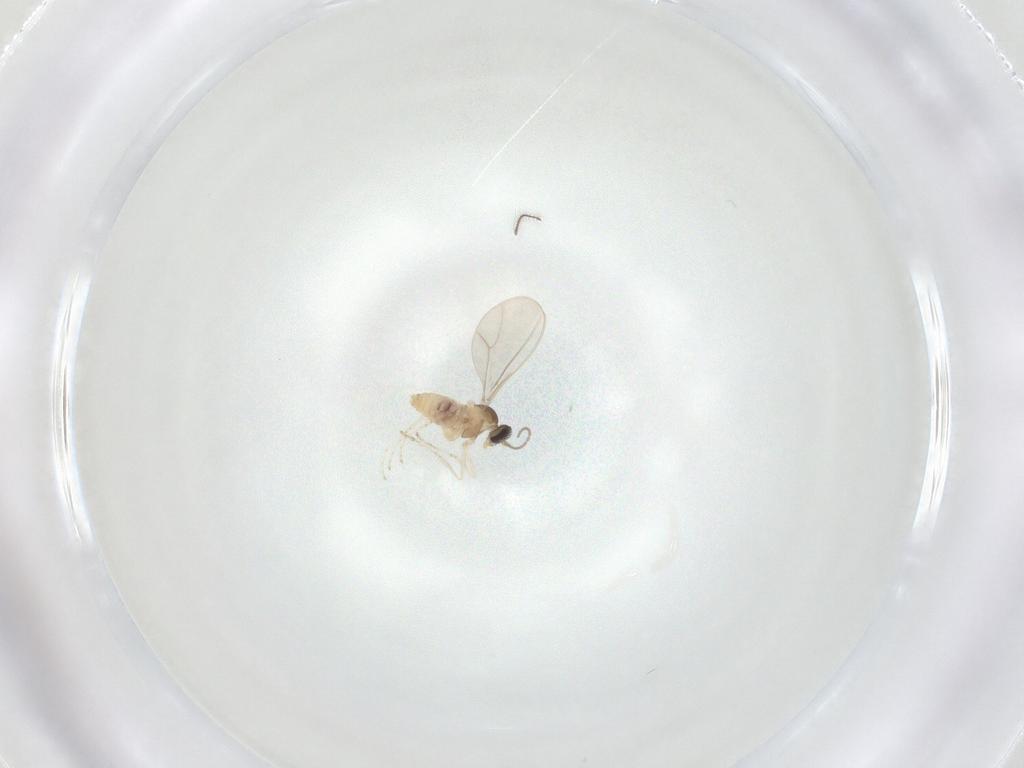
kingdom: Animalia
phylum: Arthropoda
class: Insecta
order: Diptera
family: Ceratopogonidae
